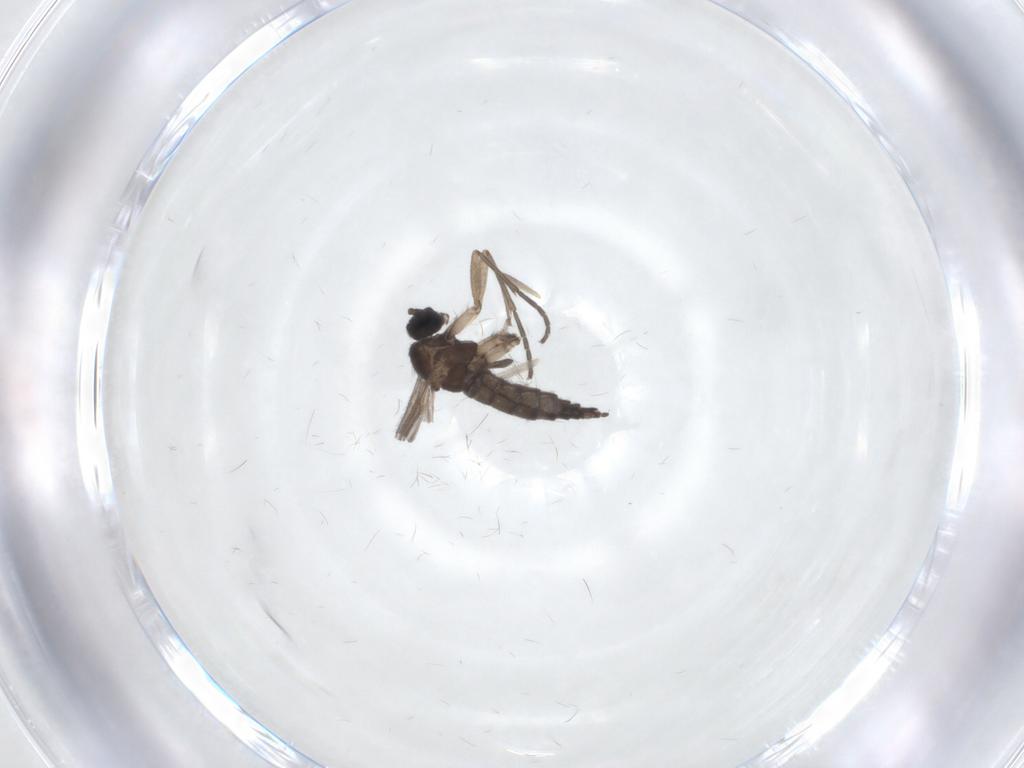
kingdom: Animalia
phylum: Arthropoda
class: Insecta
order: Diptera
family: Sciaridae
